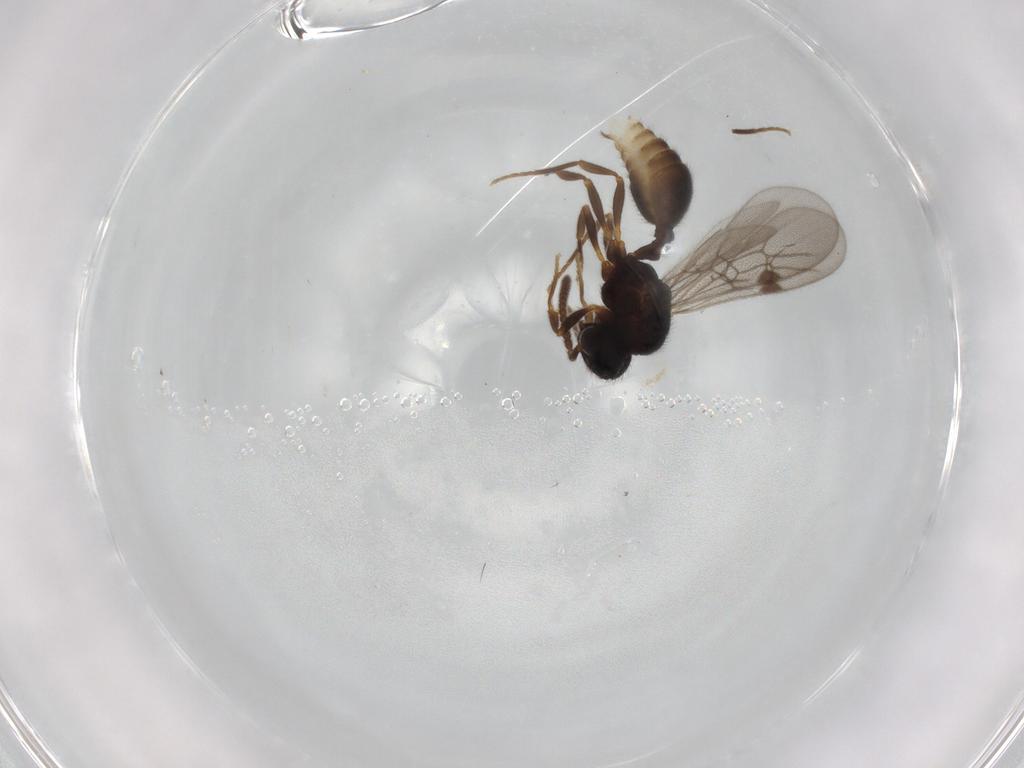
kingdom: Animalia
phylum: Arthropoda
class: Insecta
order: Hymenoptera
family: Formicidae
